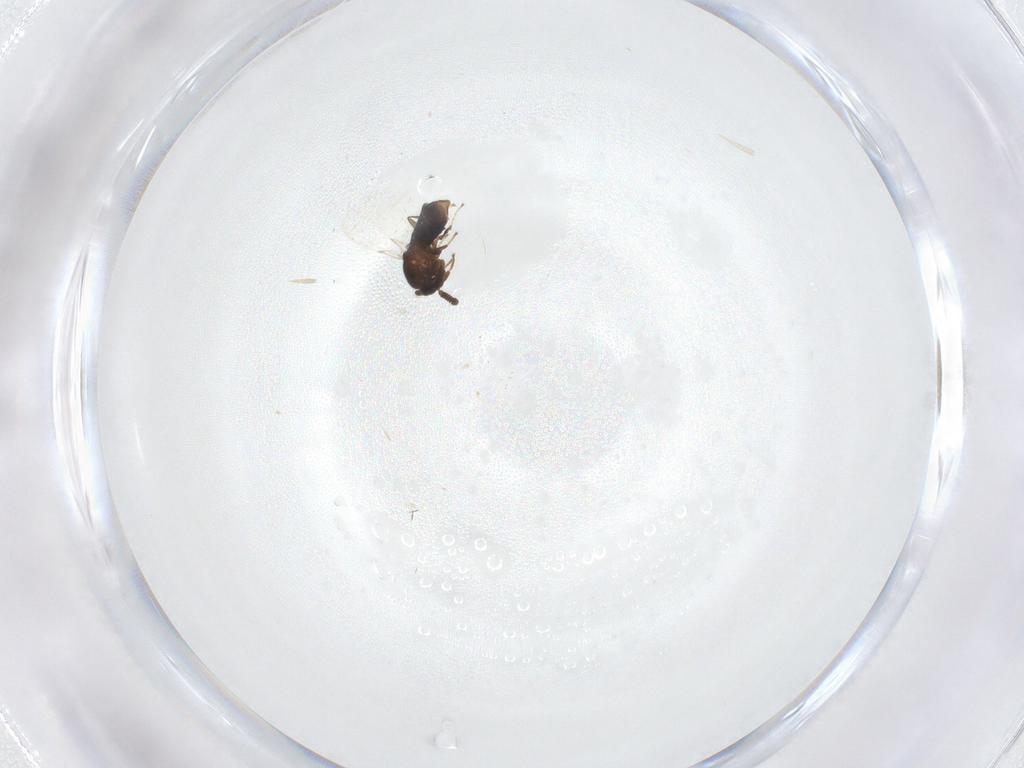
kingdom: Animalia
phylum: Arthropoda
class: Insecta
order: Diptera
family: Scatopsidae
